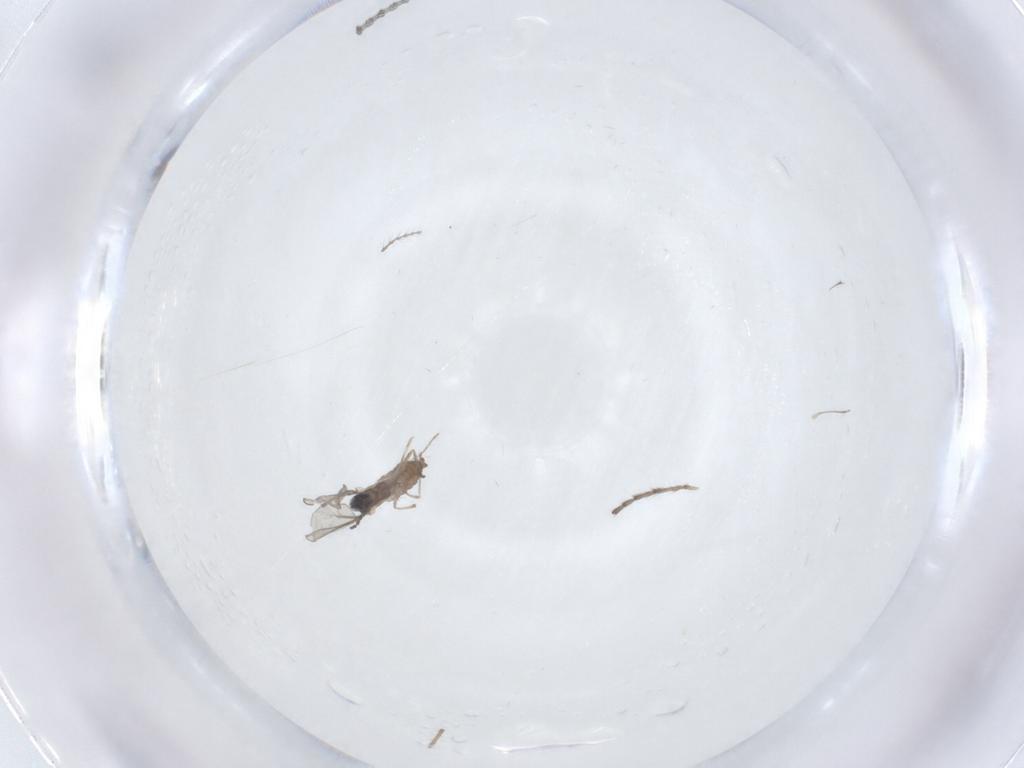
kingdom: Animalia
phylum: Arthropoda
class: Insecta
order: Diptera
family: Limoniidae
